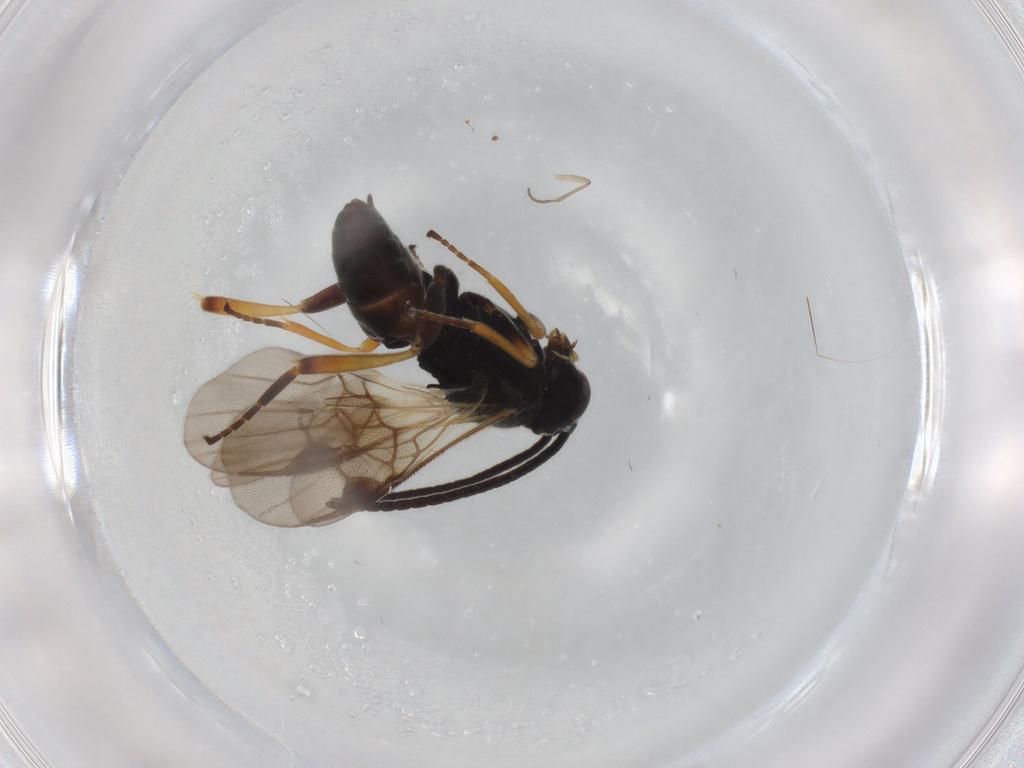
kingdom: Animalia
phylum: Arthropoda
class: Insecta
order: Hymenoptera
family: Braconidae
